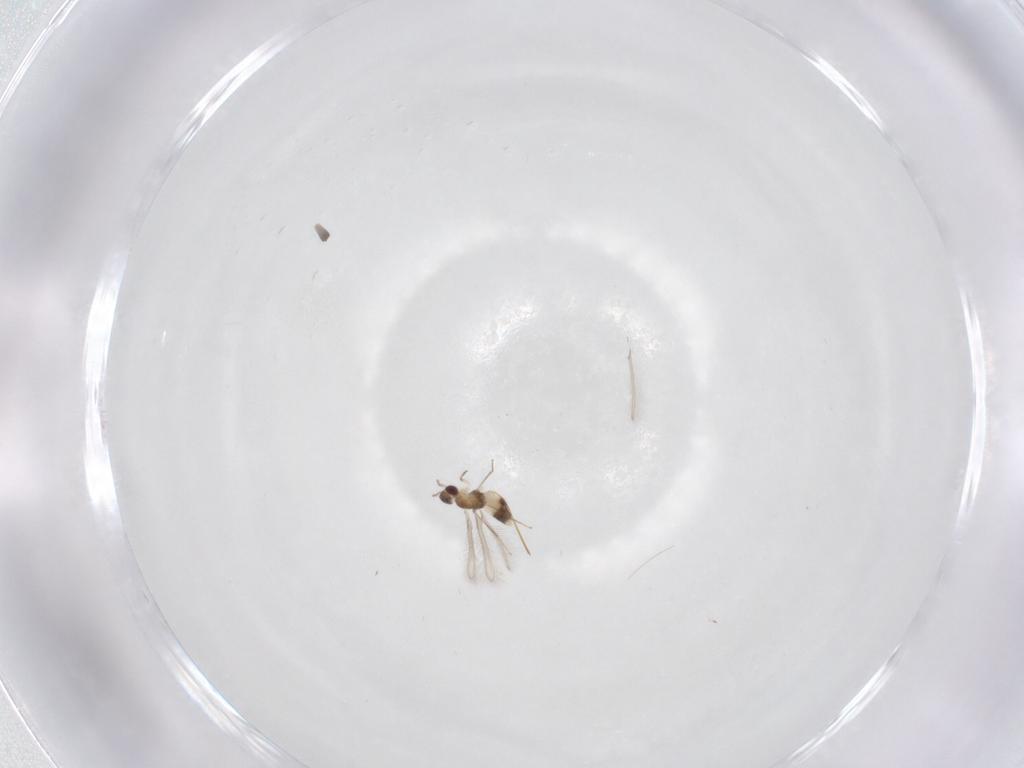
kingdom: Animalia
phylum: Arthropoda
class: Insecta
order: Hymenoptera
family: Mymaridae
